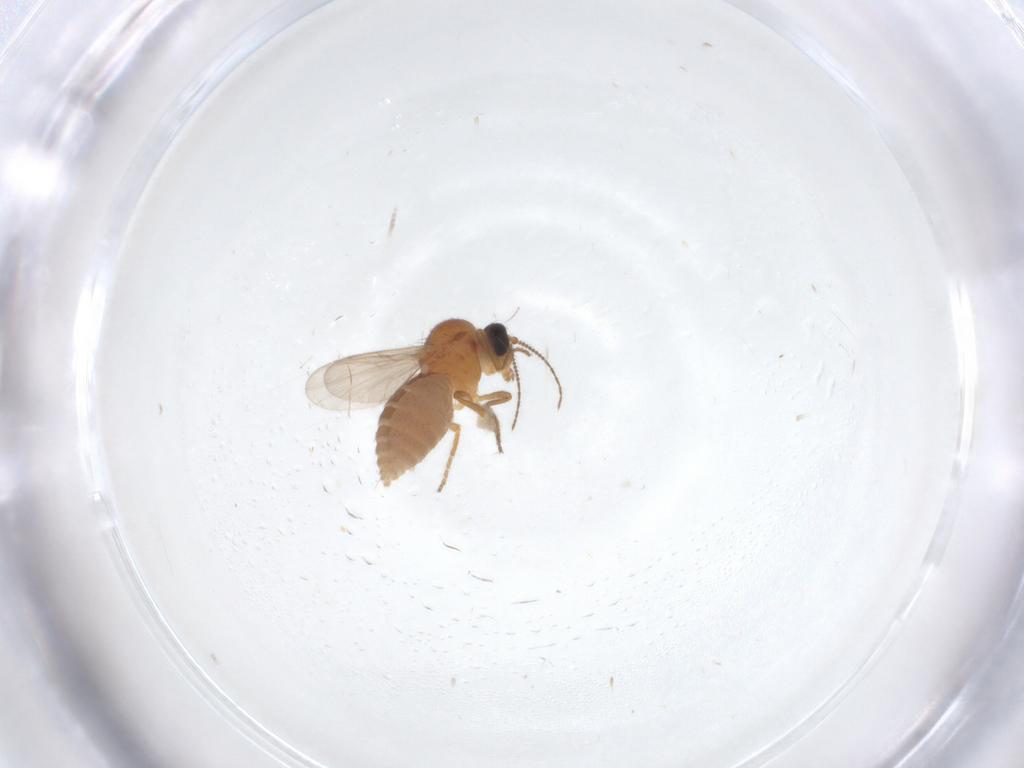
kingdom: Animalia
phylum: Arthropoda
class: Insecta
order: Diptera
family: Ceratopogonidae
